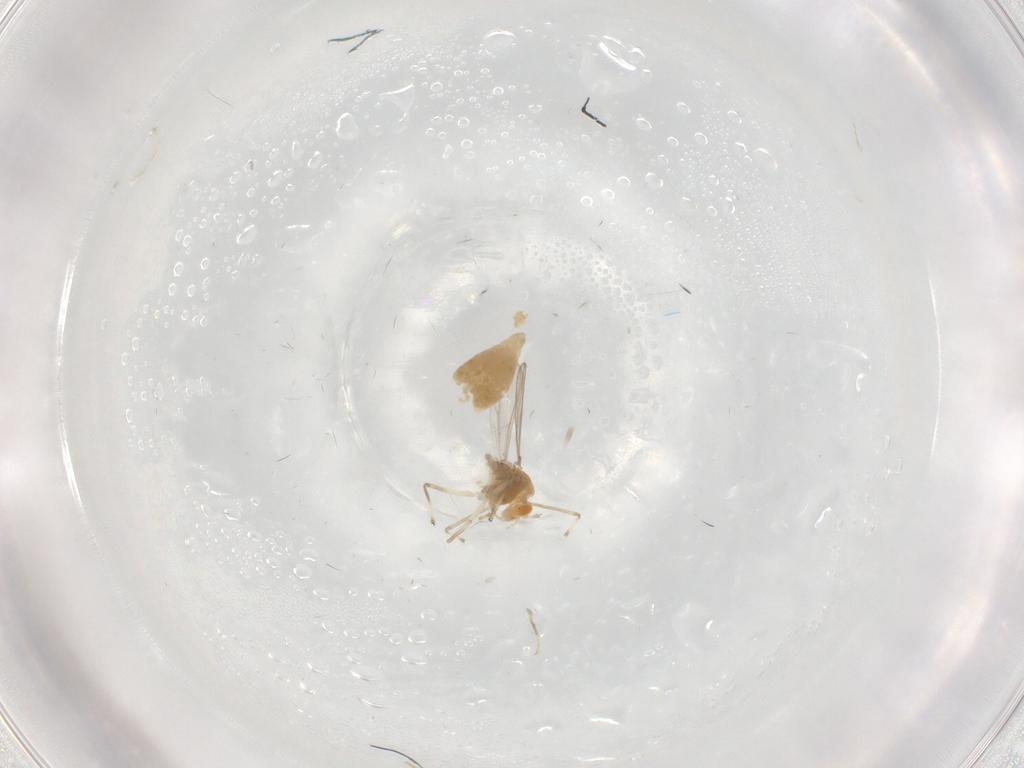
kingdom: Animalia
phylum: Arthropoda
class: Insecta
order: Diptera
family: Chironomidae
